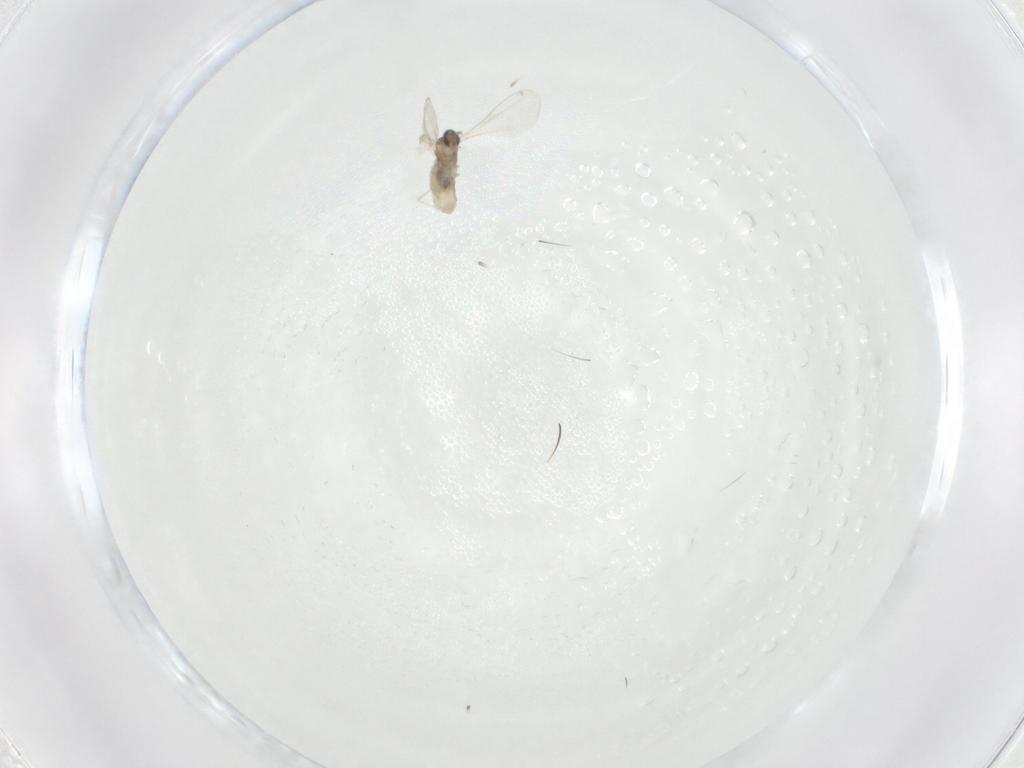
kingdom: Animalia
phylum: Arthropoda
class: Insecta
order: Diptera
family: Cecidomyiidae
